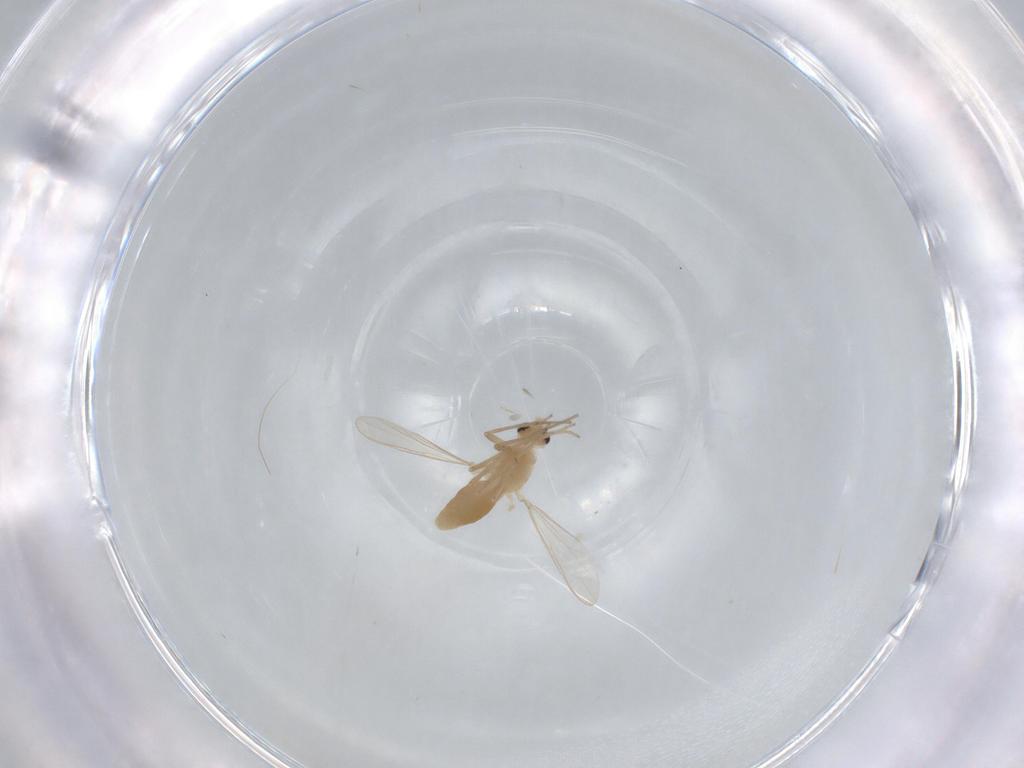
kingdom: Animalia
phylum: Arthropoda
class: Insecta
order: Diptera
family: Chironomidae
